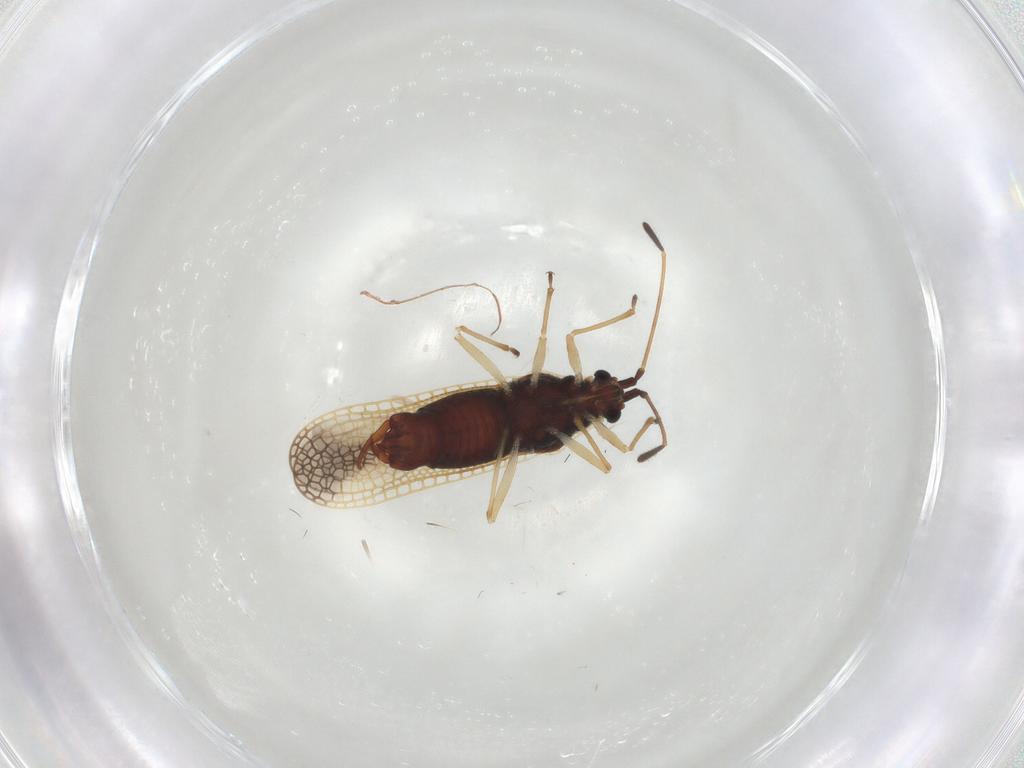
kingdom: Animalia
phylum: Arthropoda
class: Insecta
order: Hemiptera
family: Tingidae
